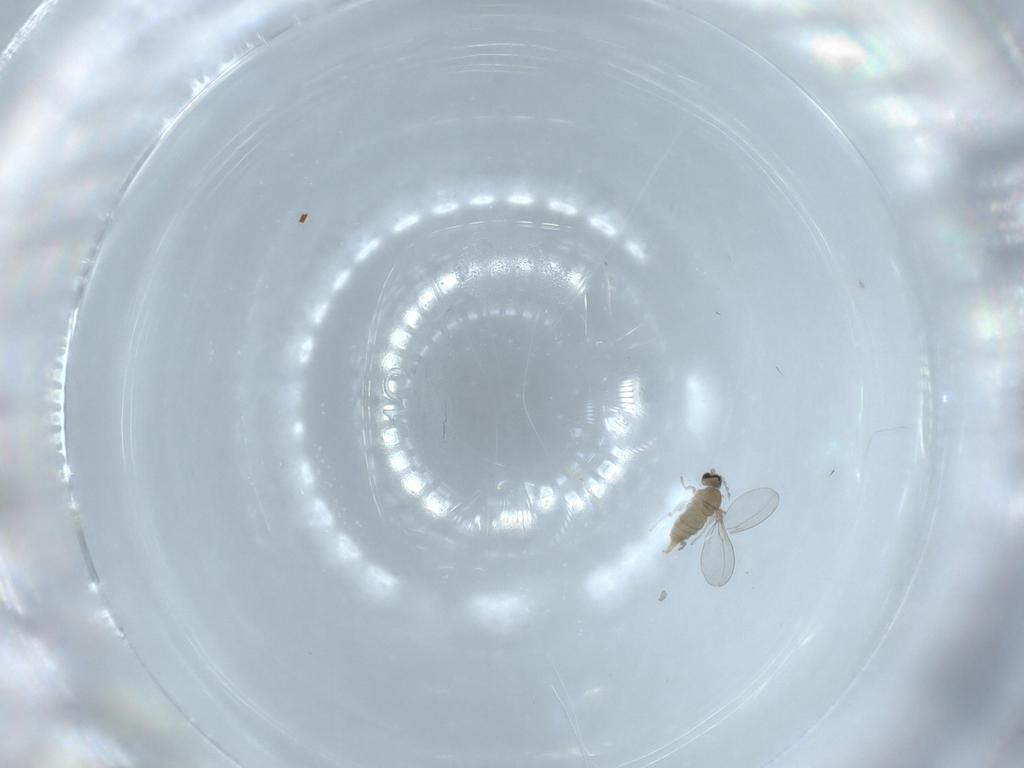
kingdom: Animalia
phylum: Arthropoda
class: Insecta
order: Diptera
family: Cecidomyiidae
